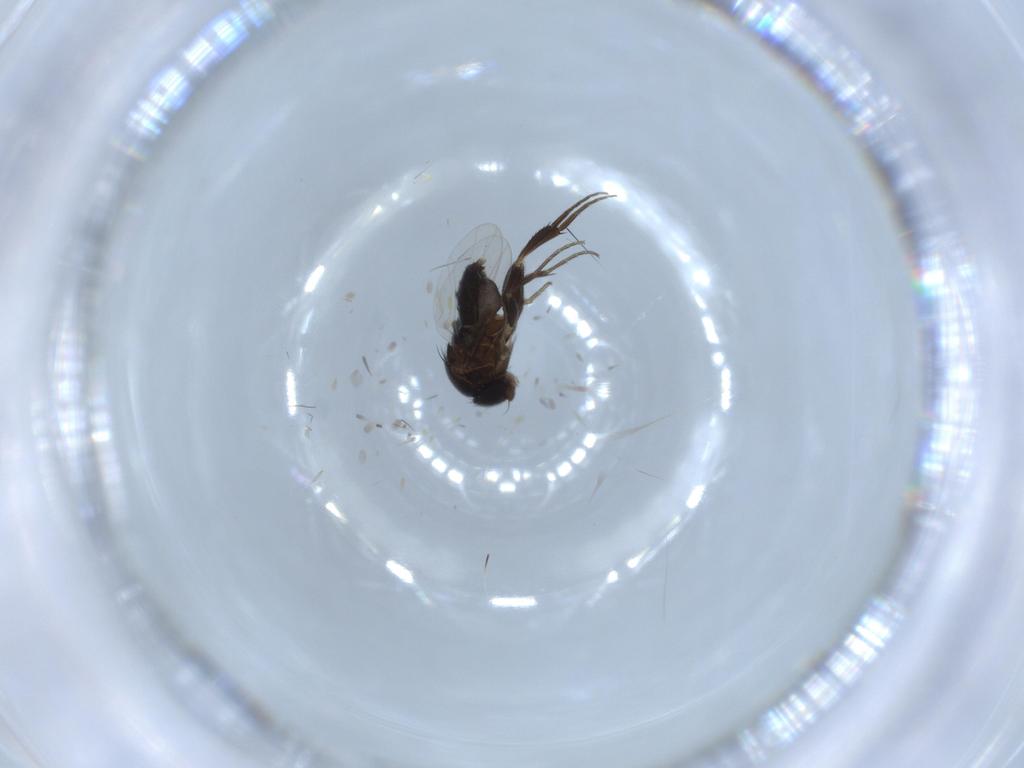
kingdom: Animalia
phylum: Arthropoda
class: Insecta
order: Diptera
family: Phoridae
